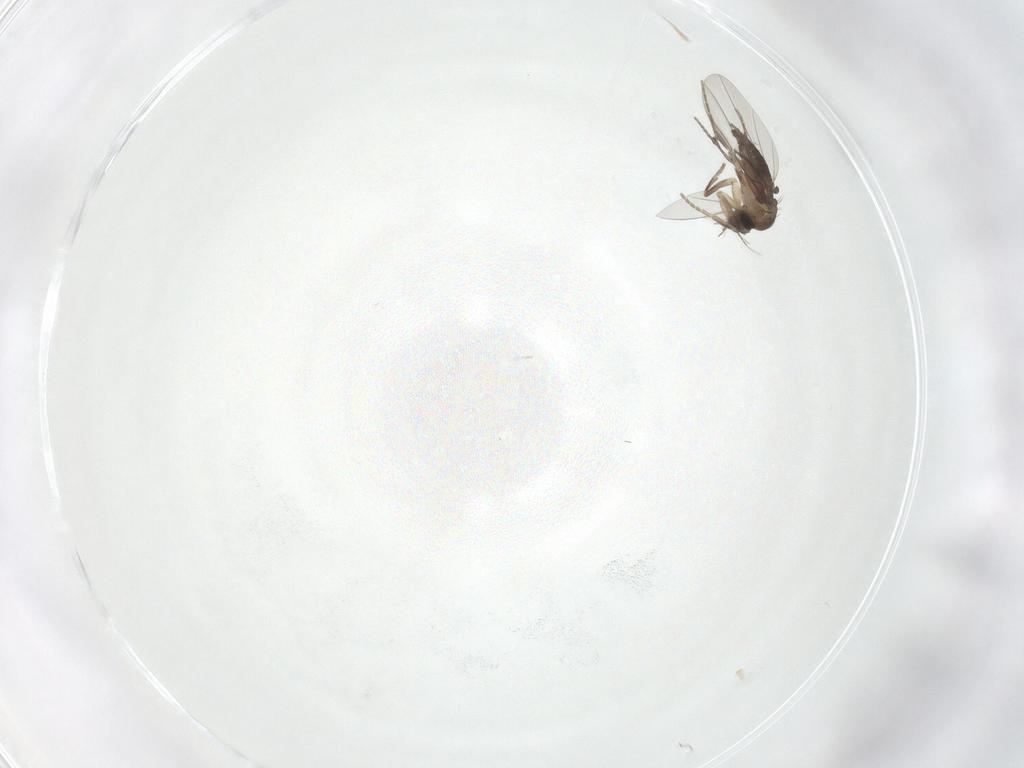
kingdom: Animalia
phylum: Arthropoda
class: Insecta
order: Diptera
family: Phoridae
